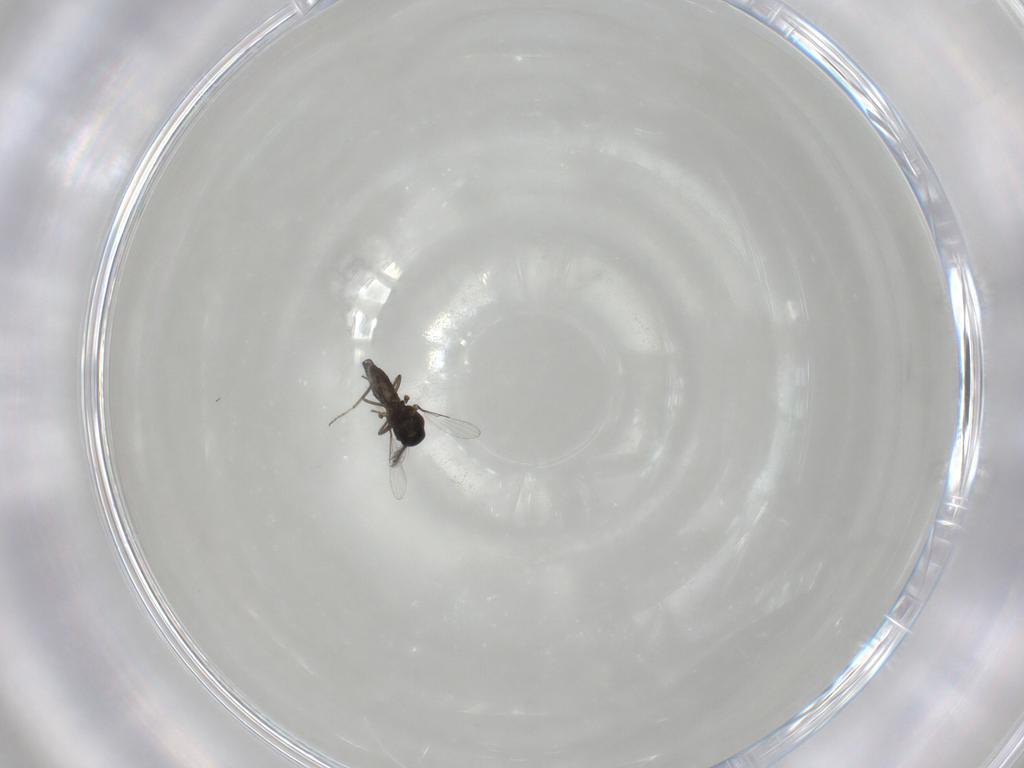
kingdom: Animalia
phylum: Arthropoda
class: Insecta
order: Diptera
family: Ceratopogonidae
